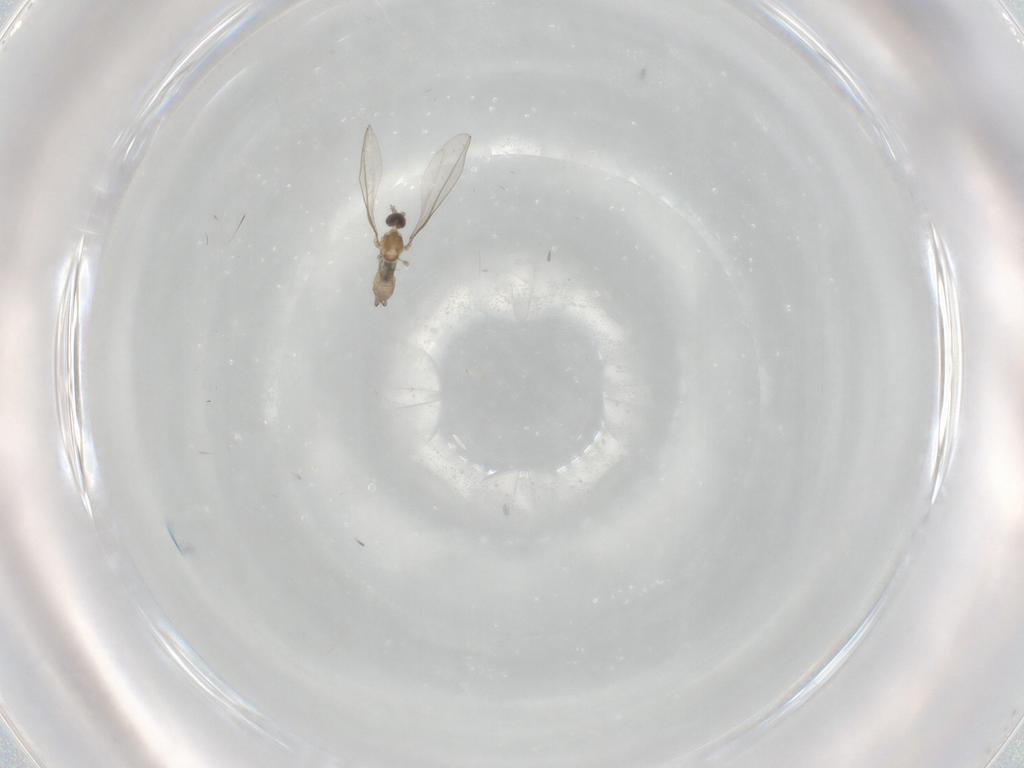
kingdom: Animalia
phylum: Arthropoda
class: Insecta
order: Diptera
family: Cecidomyiidae
